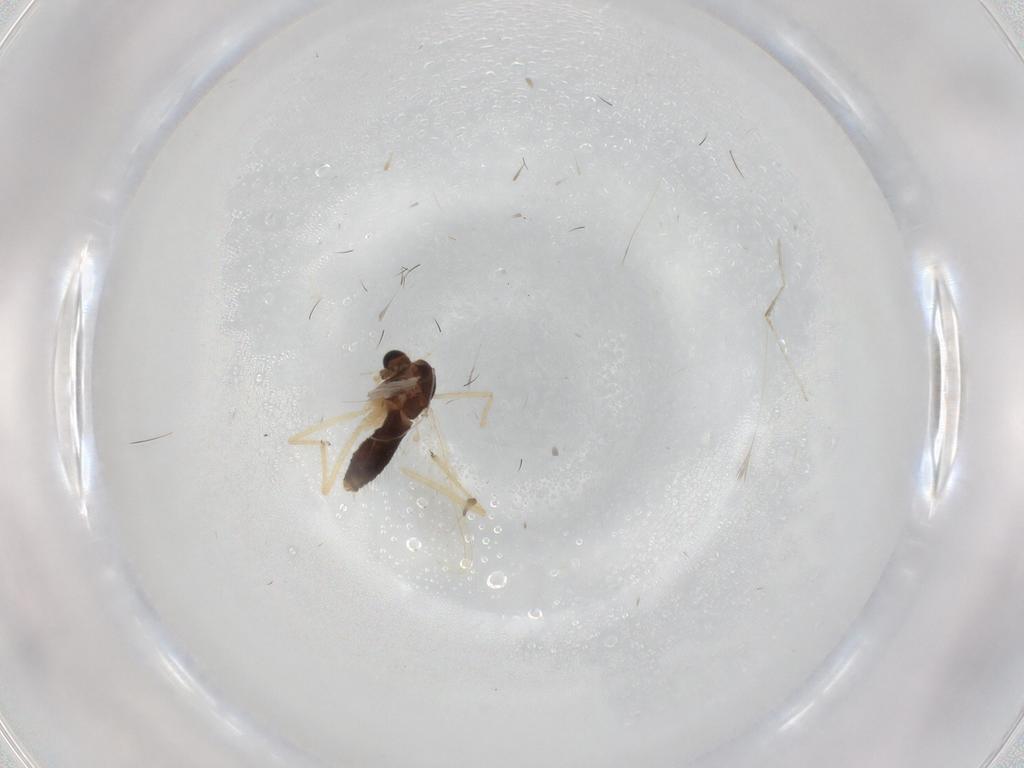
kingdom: Animalia
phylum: Arthropoda
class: Insecta
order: Diptera
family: Chironomidae
